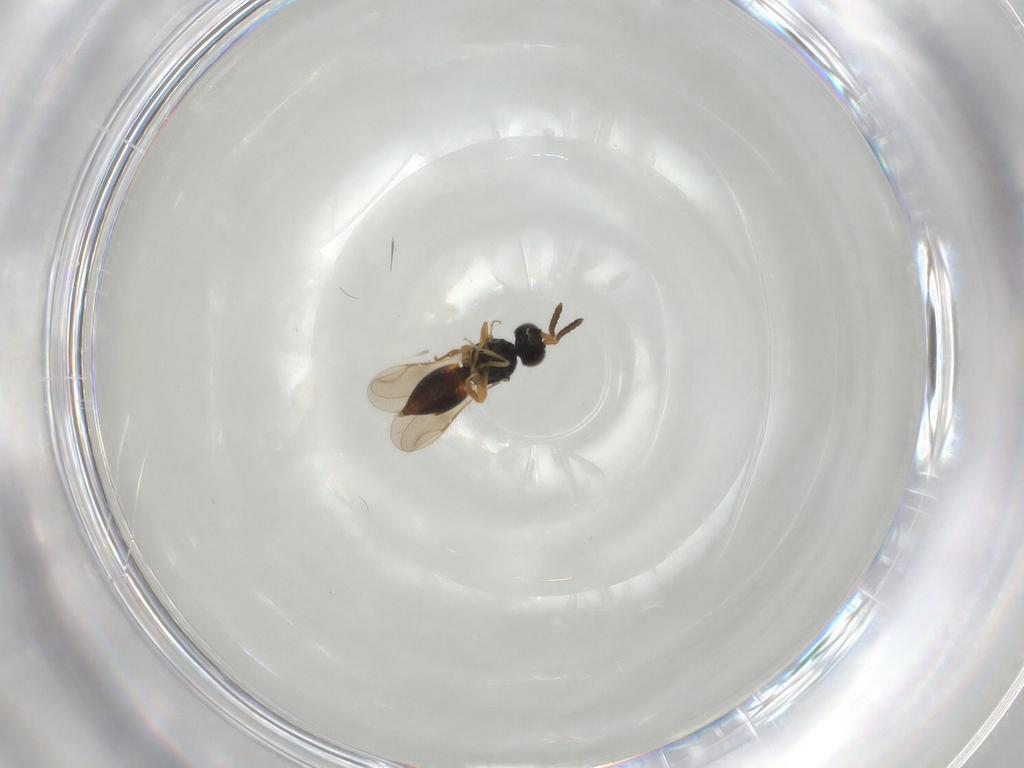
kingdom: Animalia
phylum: Arthropoda
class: Insecta
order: Hymenoptera
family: Ceraphronidae
